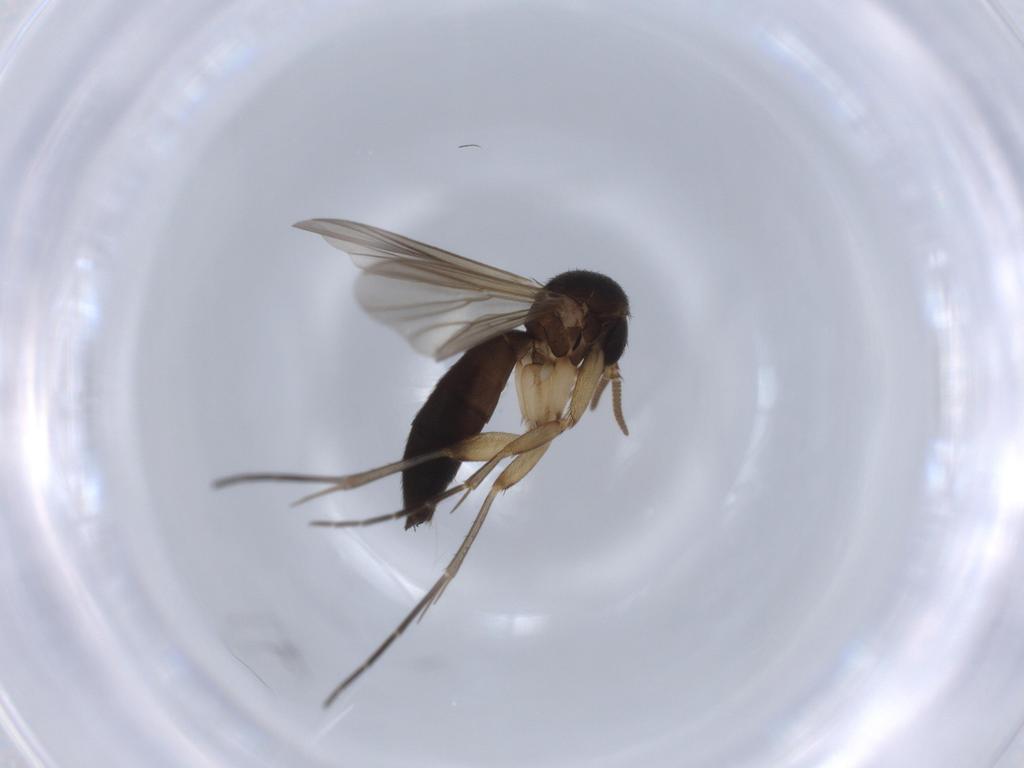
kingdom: Animalia
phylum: Arthropoda
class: Insecta
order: Diptera
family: Mycetophilidae
